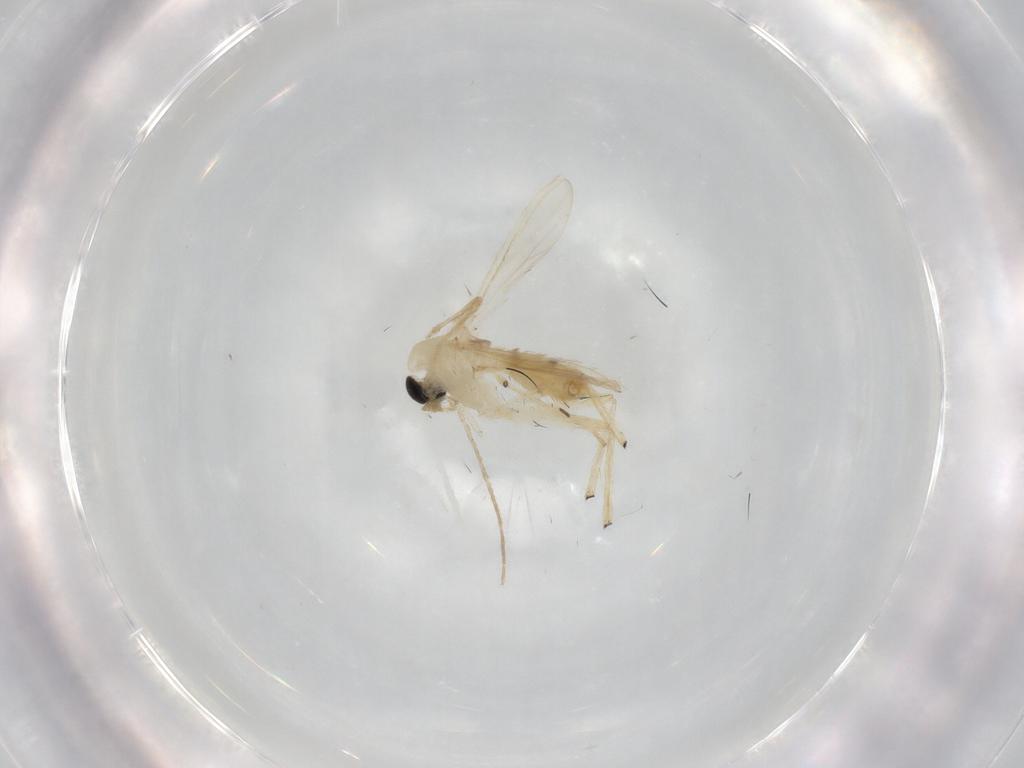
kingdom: Animalia
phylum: Arthropoda
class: Insecta
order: Diptera
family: Chironomidae
